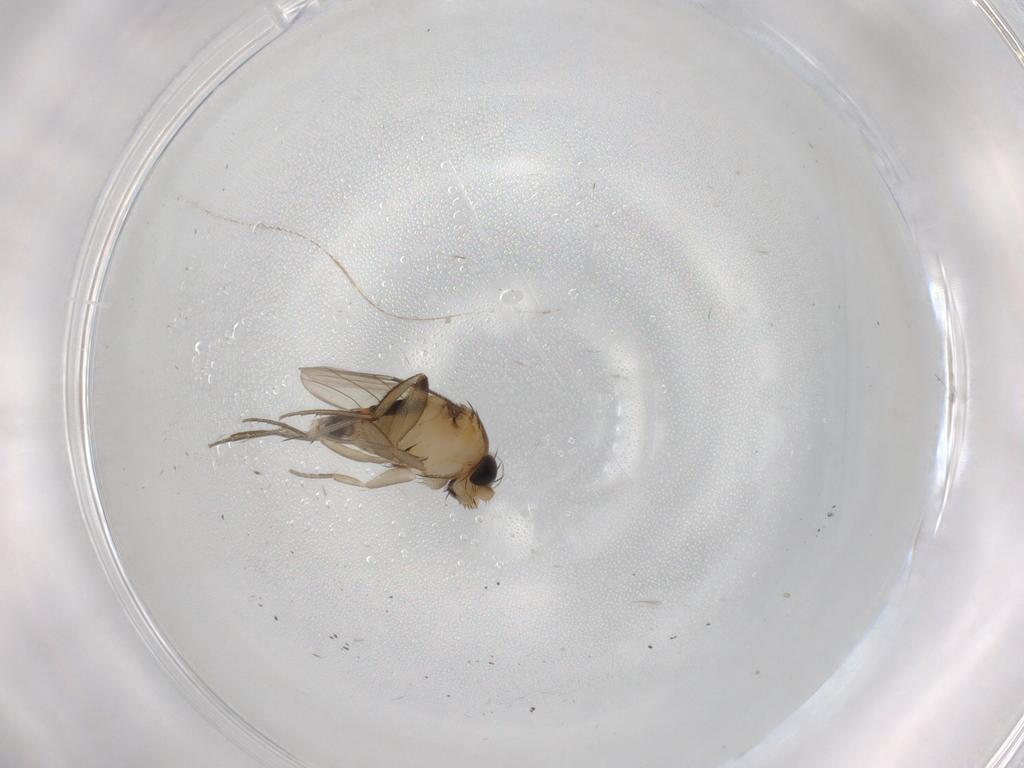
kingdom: Animalia
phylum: Arthropoda
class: Insecta
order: Diptera
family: Phoridae
